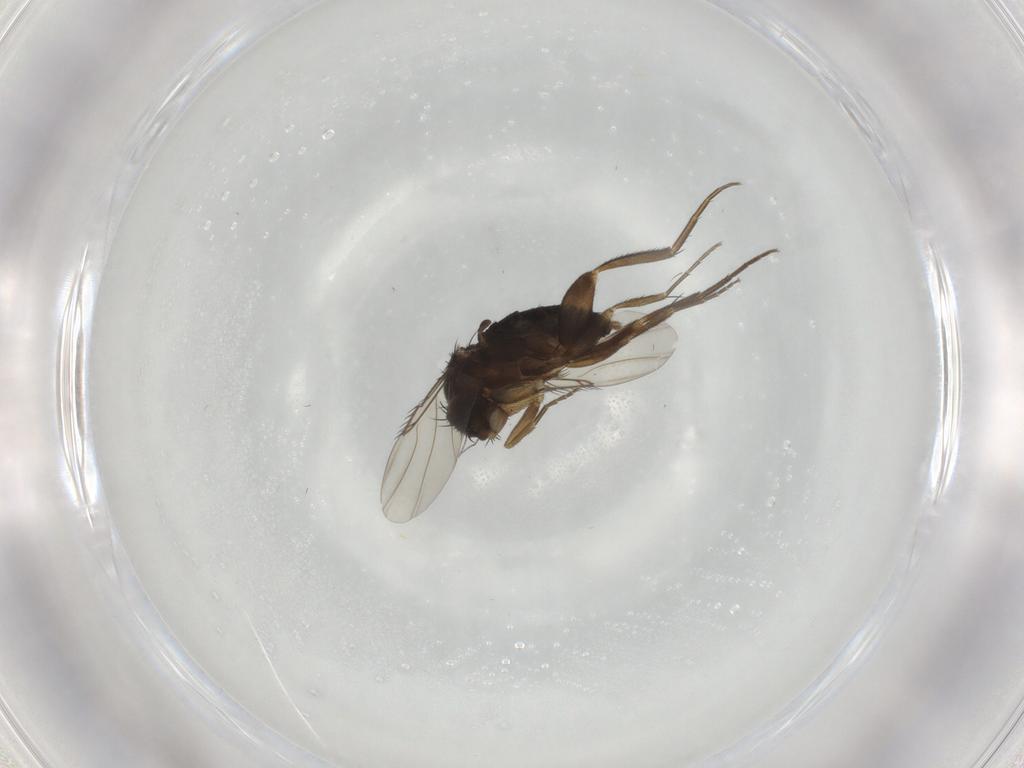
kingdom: Animalia
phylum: Arthropoda
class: Insecta
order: Diptera
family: Phoridae
